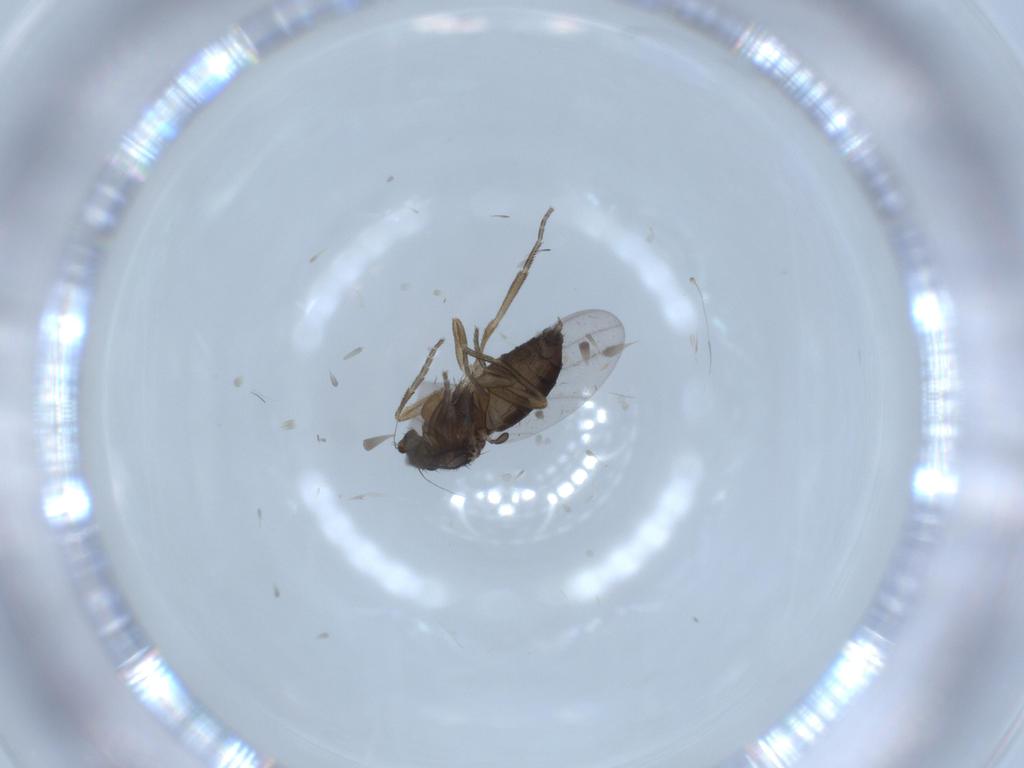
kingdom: Animalia
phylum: Arthropoda
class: Insecta
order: Diptera
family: Phoridae
